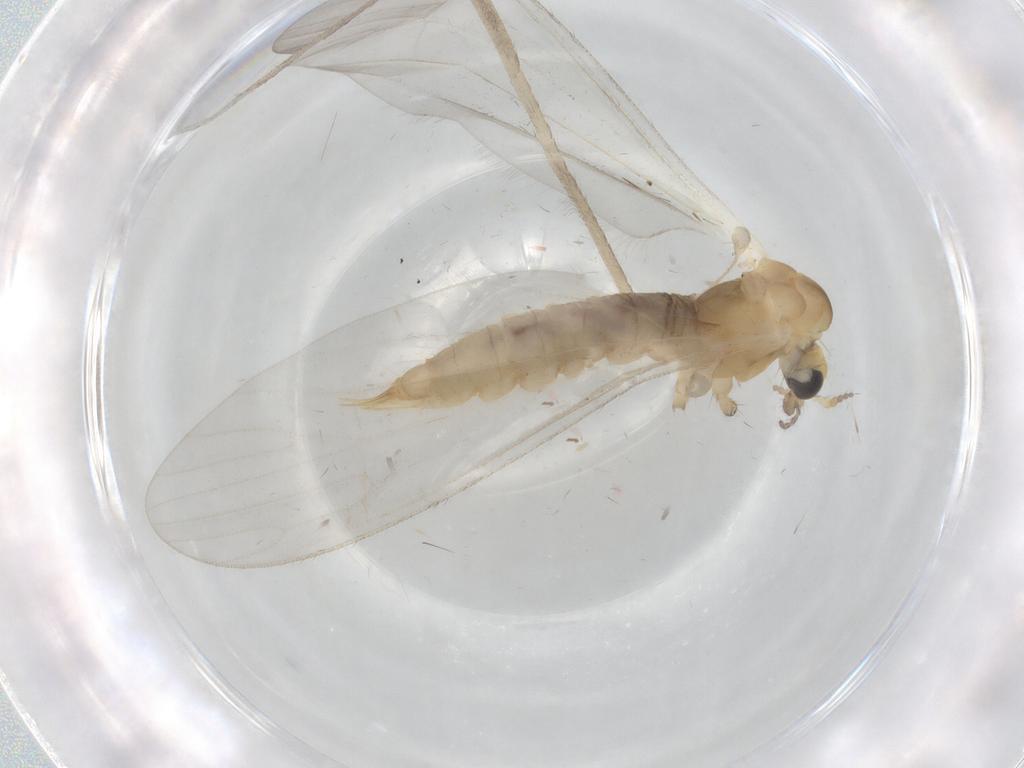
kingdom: Animalia
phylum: Arthropoda
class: Insecta
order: Diptera
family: Limoniidae
